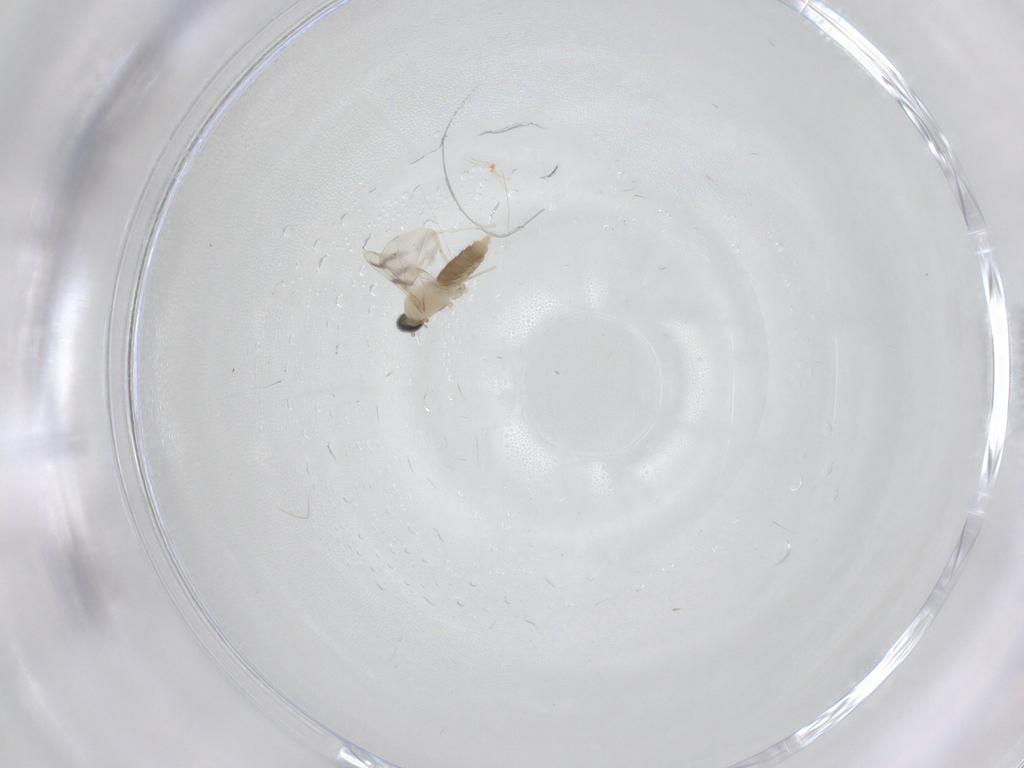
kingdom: Animalia
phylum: Arthropoda
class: Insecta
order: Diptera
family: Cecidomyiidae
